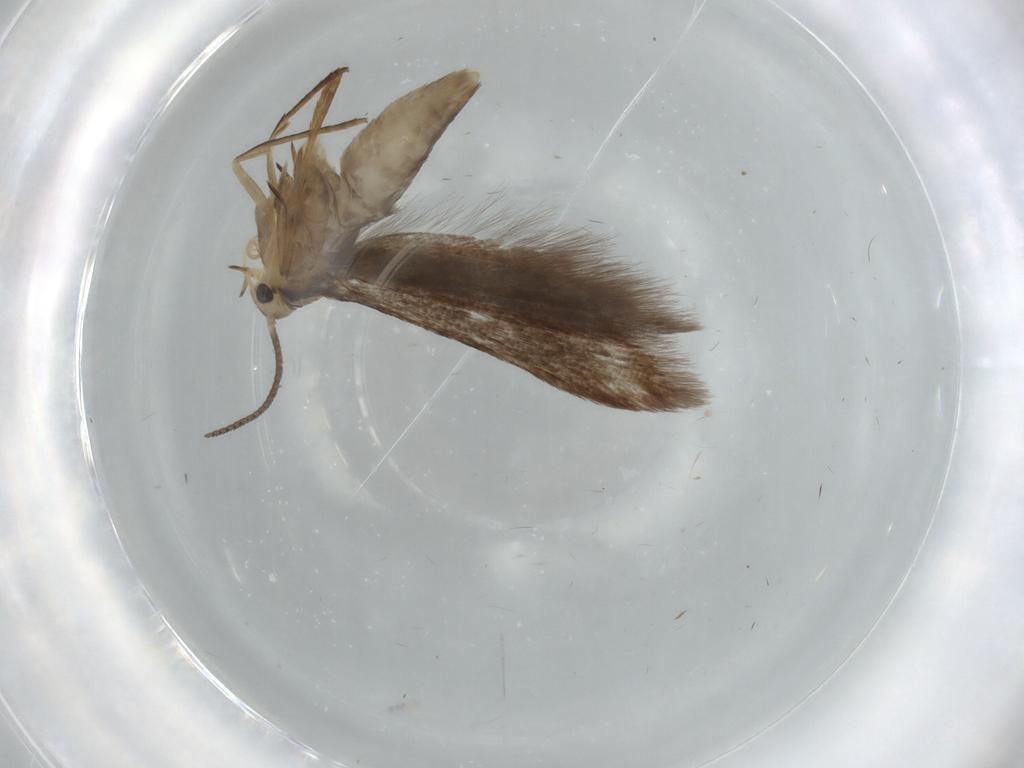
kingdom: Animalia
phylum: Arthropoda
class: Insecta
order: Lepidoptera
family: Schreckensteiniidae
